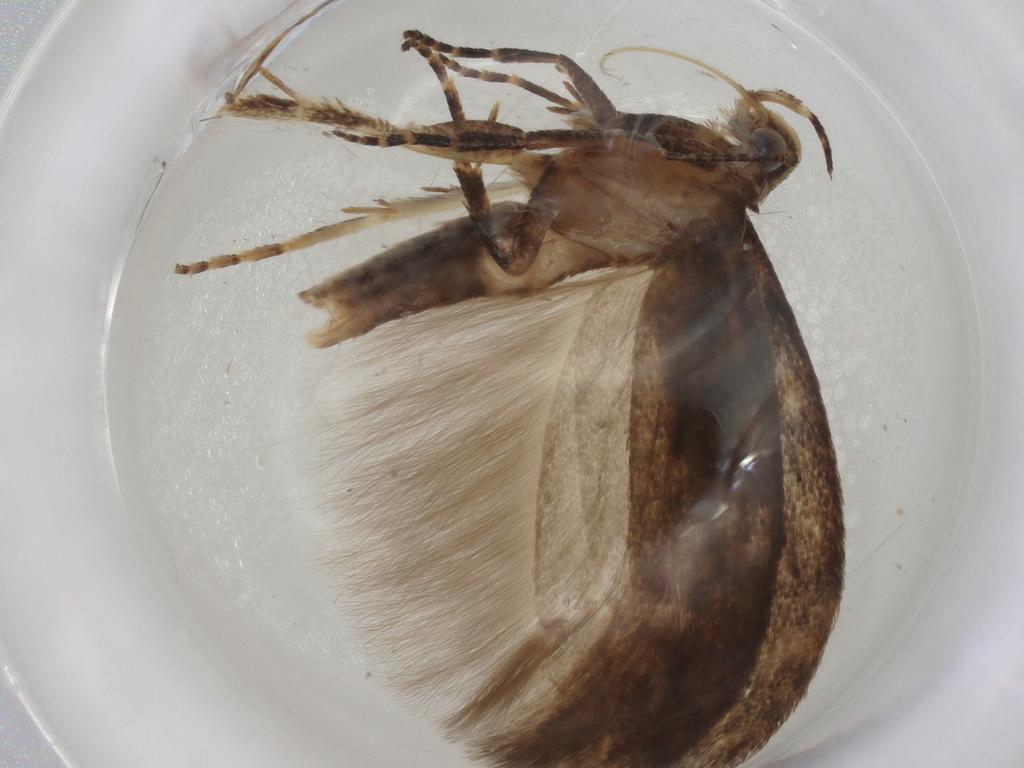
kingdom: Animalia
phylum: Arthropoda
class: Insecta
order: Lepidoptera
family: Gelechiidae
